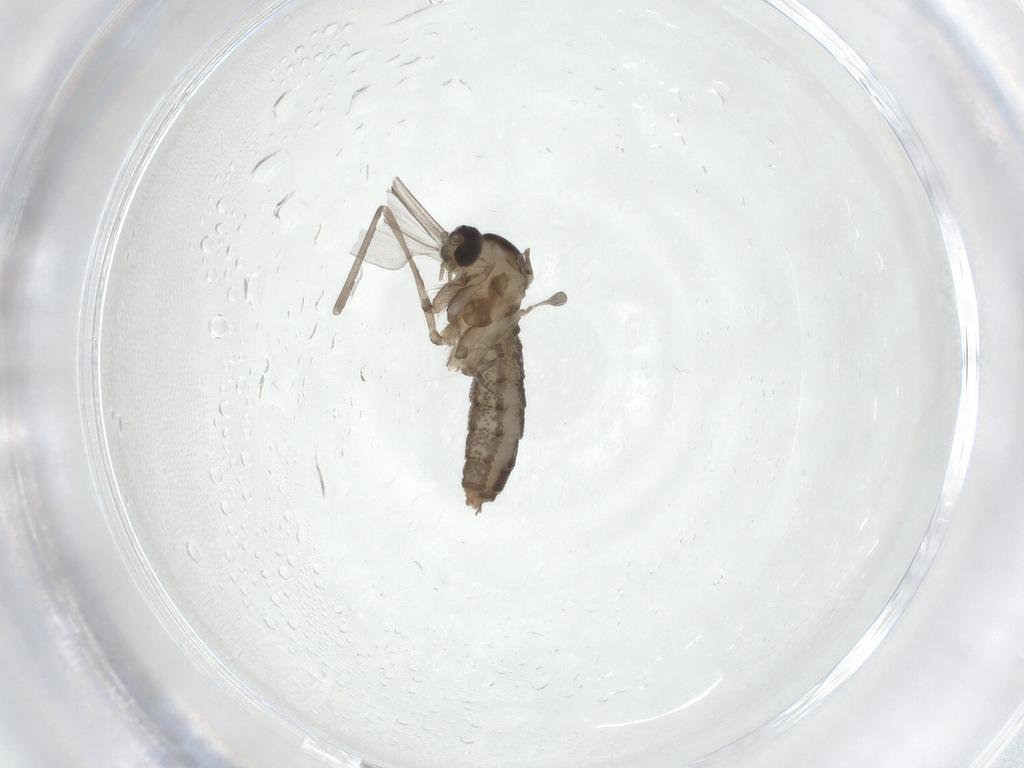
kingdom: Animalia
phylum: Arthropoda
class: Insecta
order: Diptera
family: Cecidomyiidae
